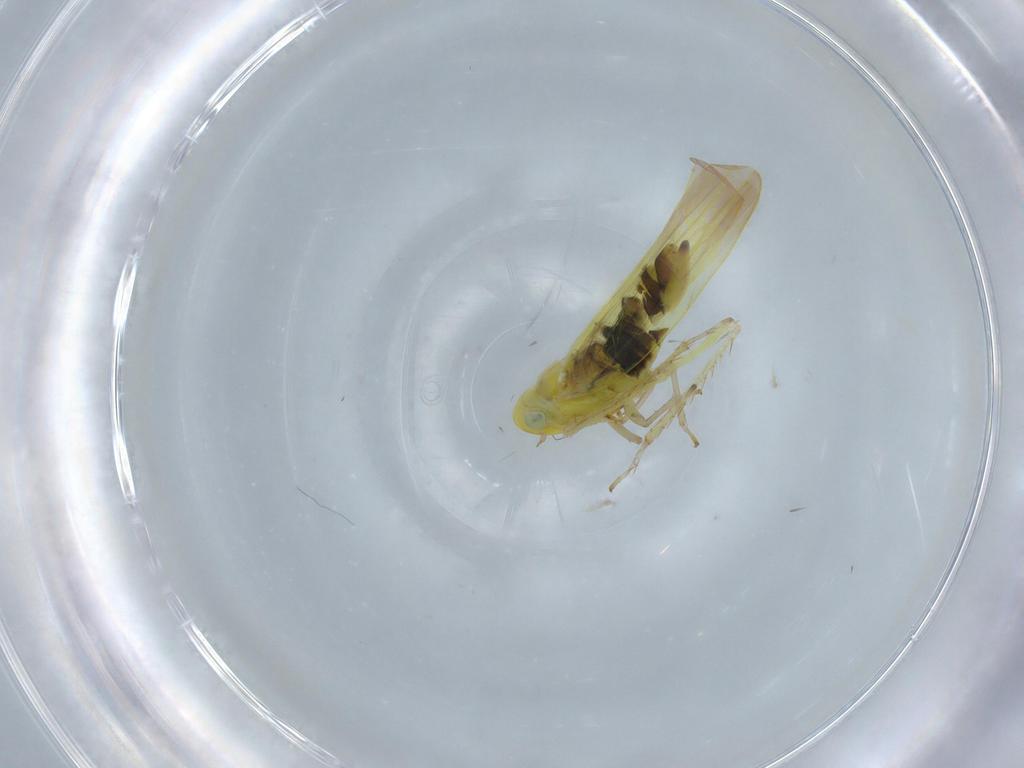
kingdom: Animalia
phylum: Arthropoda
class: Insecta
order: Hemiptera
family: Cicadellidae
